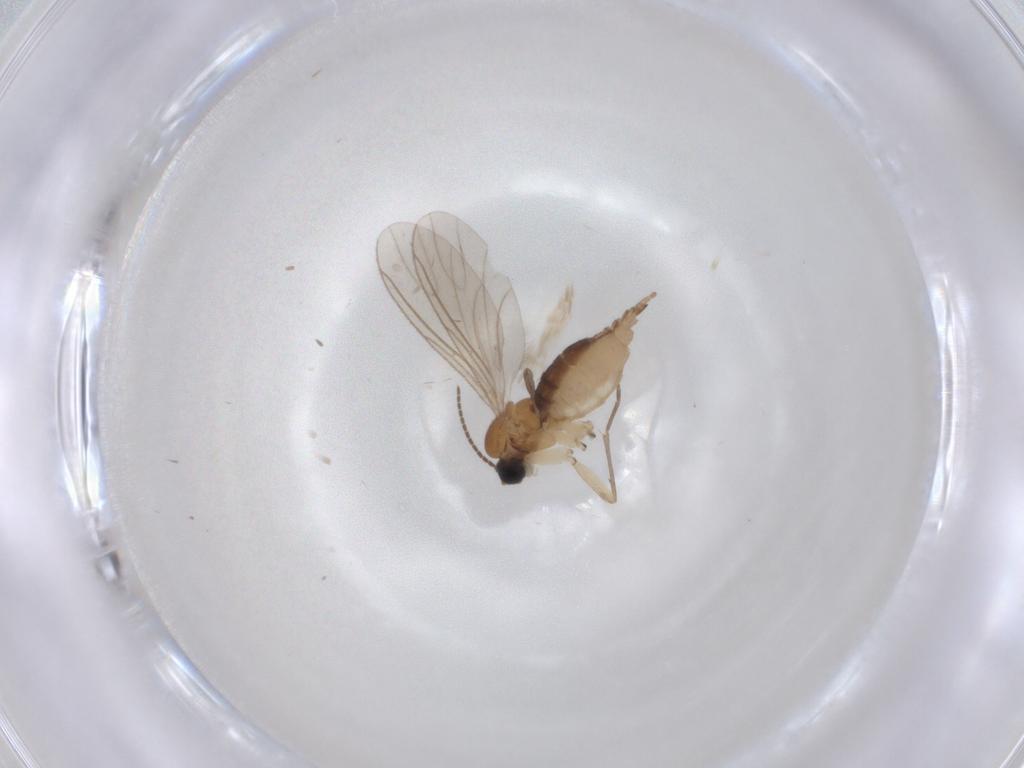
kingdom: Animalia
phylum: Arthropoda
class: Insecta
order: Diptera
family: Sciaridae
